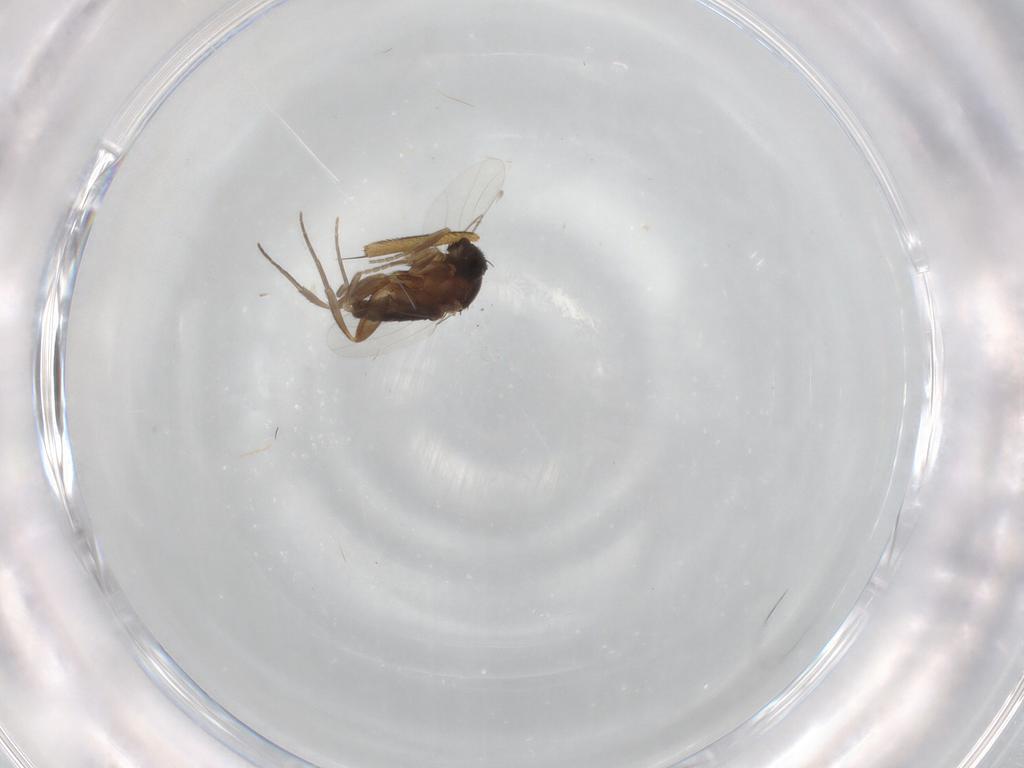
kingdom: Animalia
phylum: Arthropoda
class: Insecta
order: Diptera
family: Phoridae
